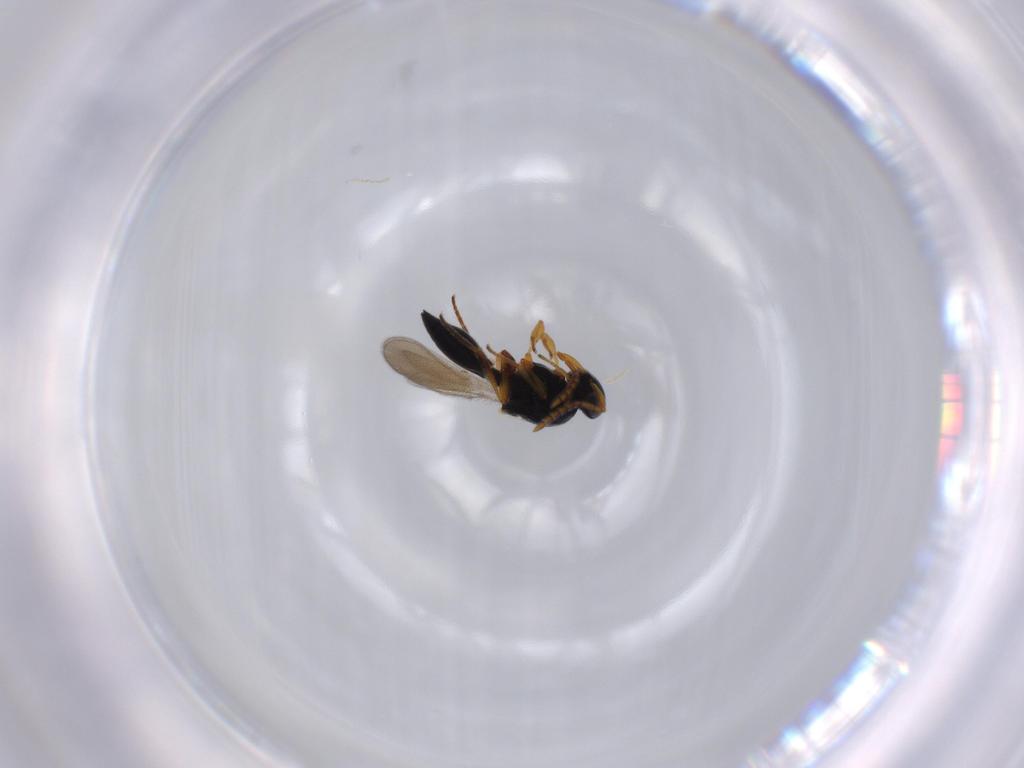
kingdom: Animalia
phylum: Arthropoda
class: Insecta
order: Hymenoptera
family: Platygastridae
